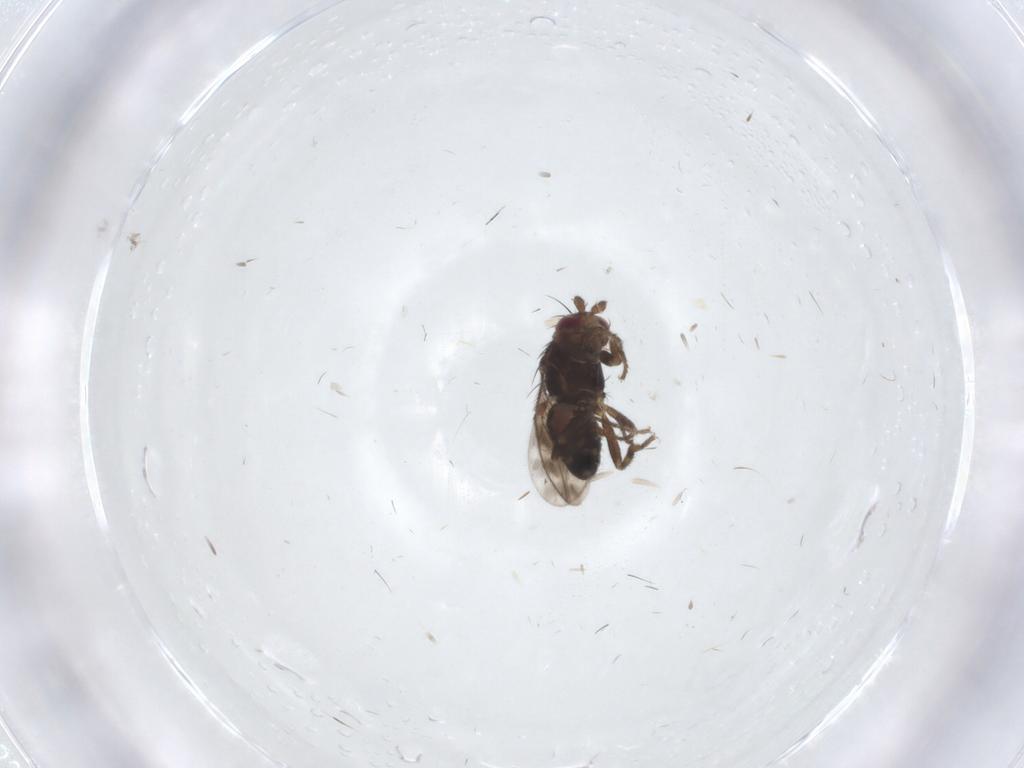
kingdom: Animalia
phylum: Arthropoda
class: Insecta
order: Diptera
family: Sphaeroceridae
